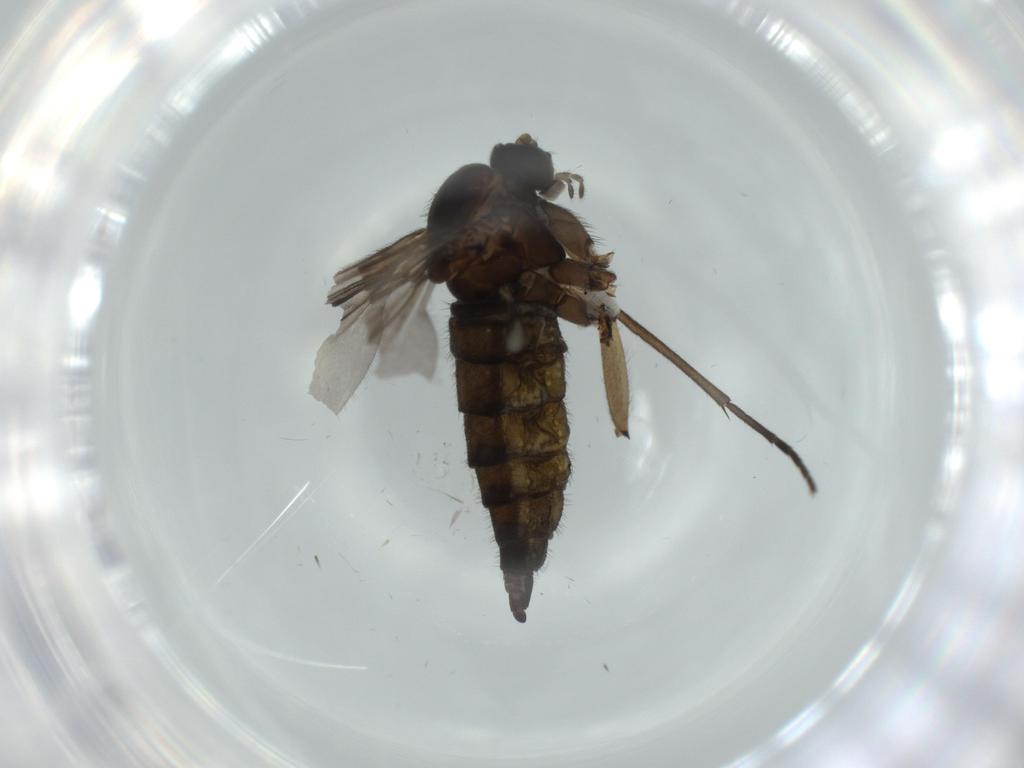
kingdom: Animalia
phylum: Arthropoda
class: Insecta
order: Diptera
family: Sciaridae
